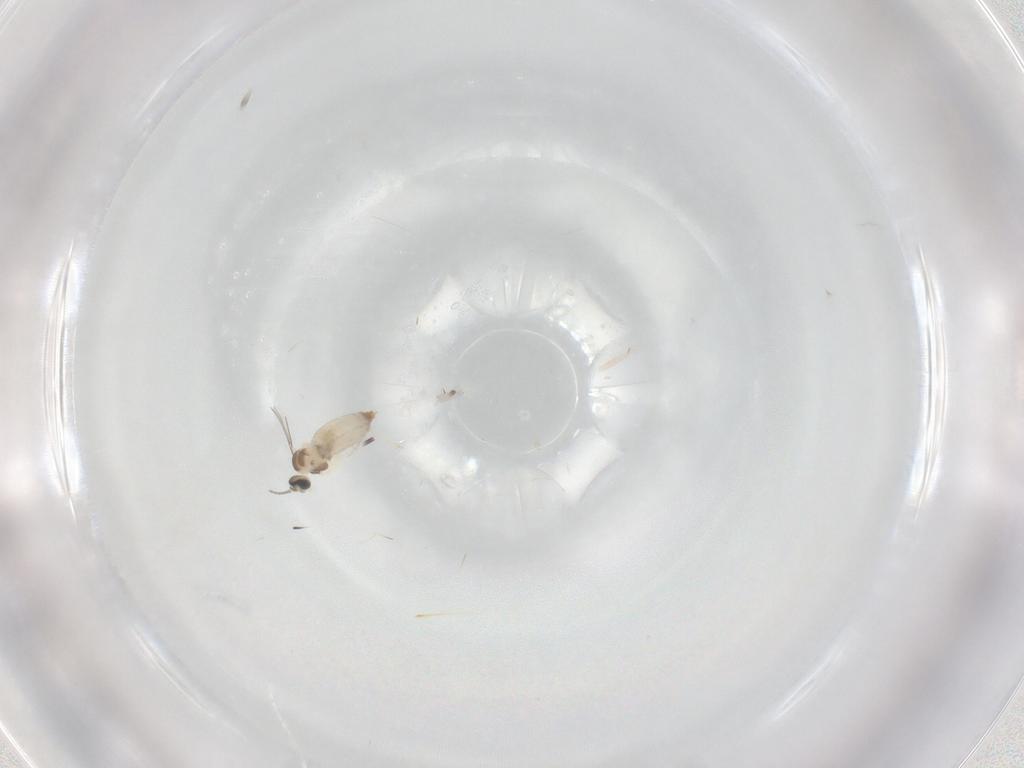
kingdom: Animalia
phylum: Arthropoda
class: Insecta
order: Diptera
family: Cecidomyiidae
